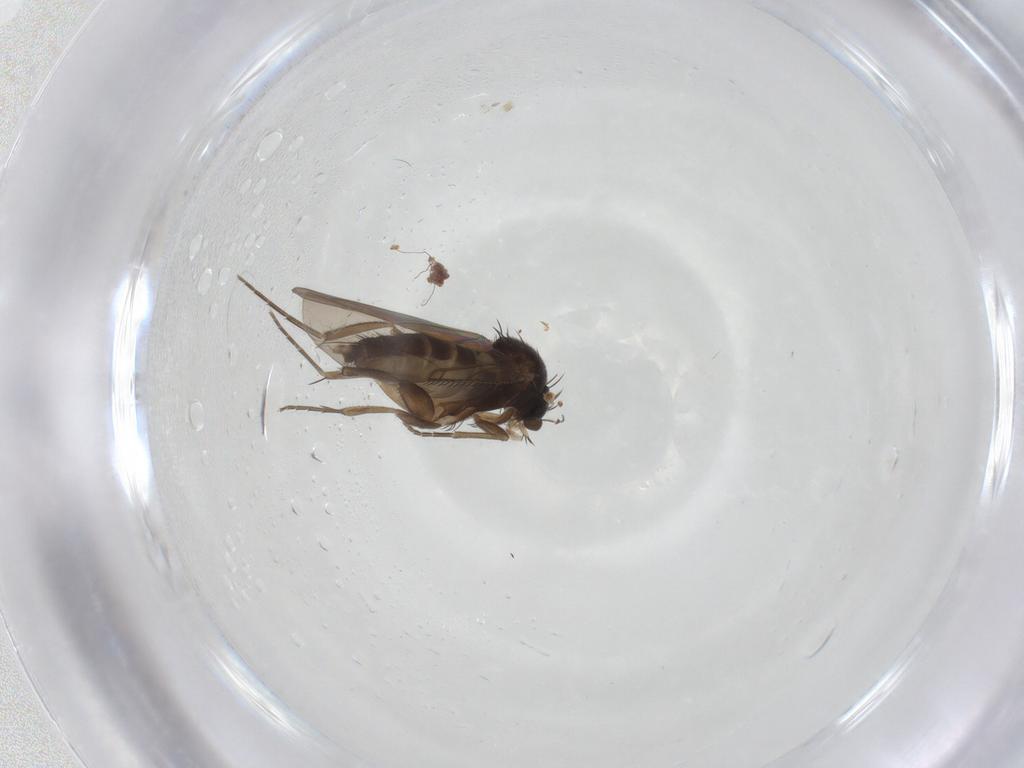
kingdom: Animalia
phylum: Arthropoda
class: Insecta
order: Diptera
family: Phoridae
